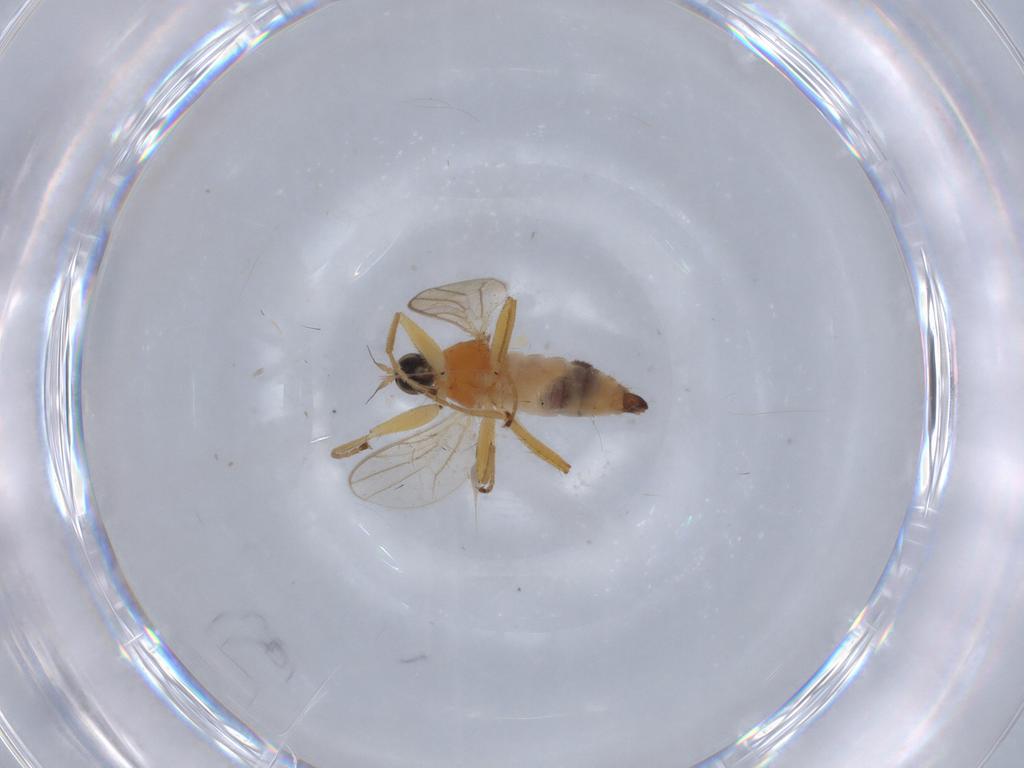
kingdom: Animalia
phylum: Arthropoda
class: Insecta
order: Diptera
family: Hybotidae
